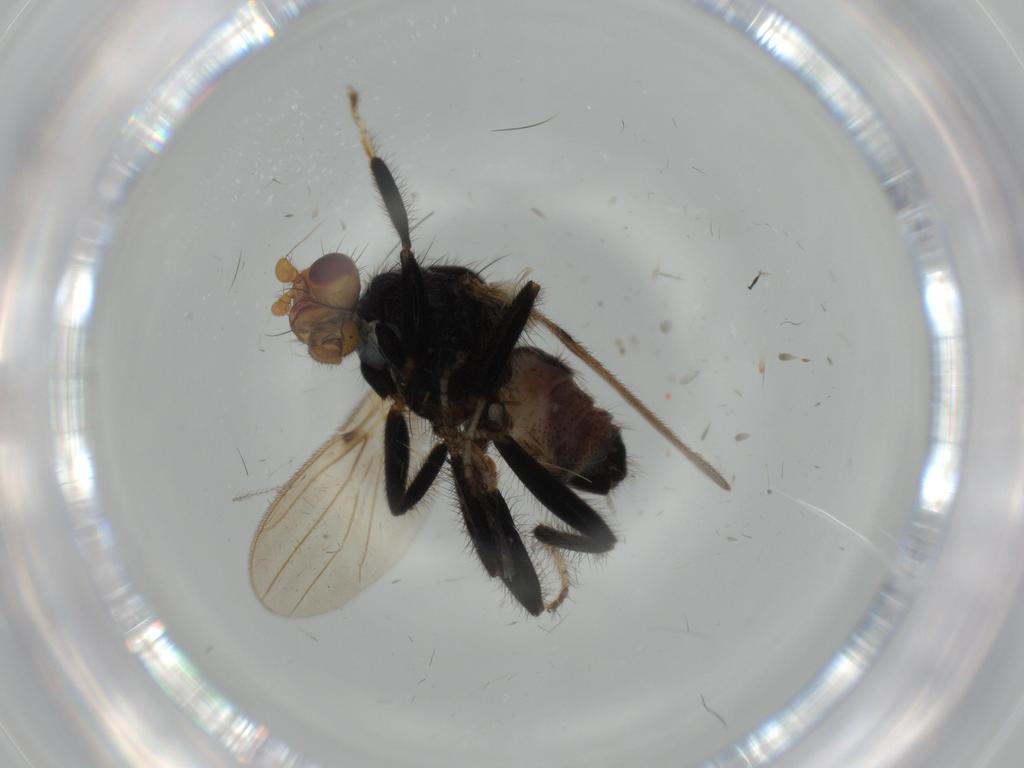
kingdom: Animalia
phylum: Arthropoda
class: Insecta
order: Diptera
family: Sphaeroceridae
